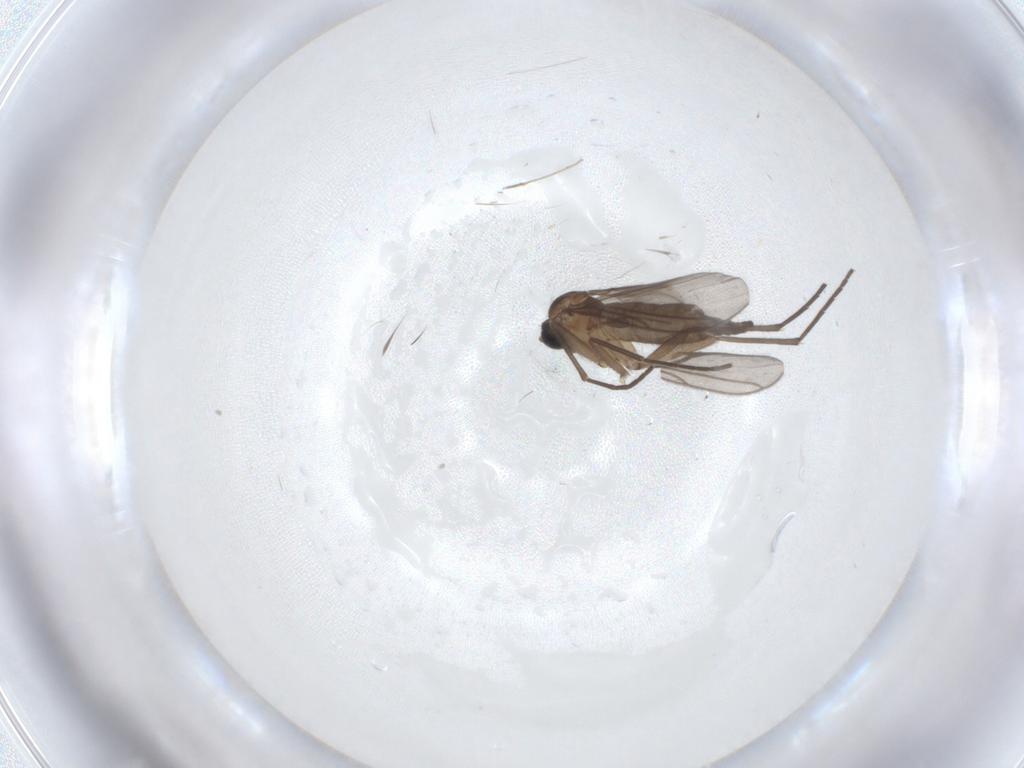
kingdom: Animalia
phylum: Arthropoda
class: Insecta
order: Diptera
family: Sciaridae
